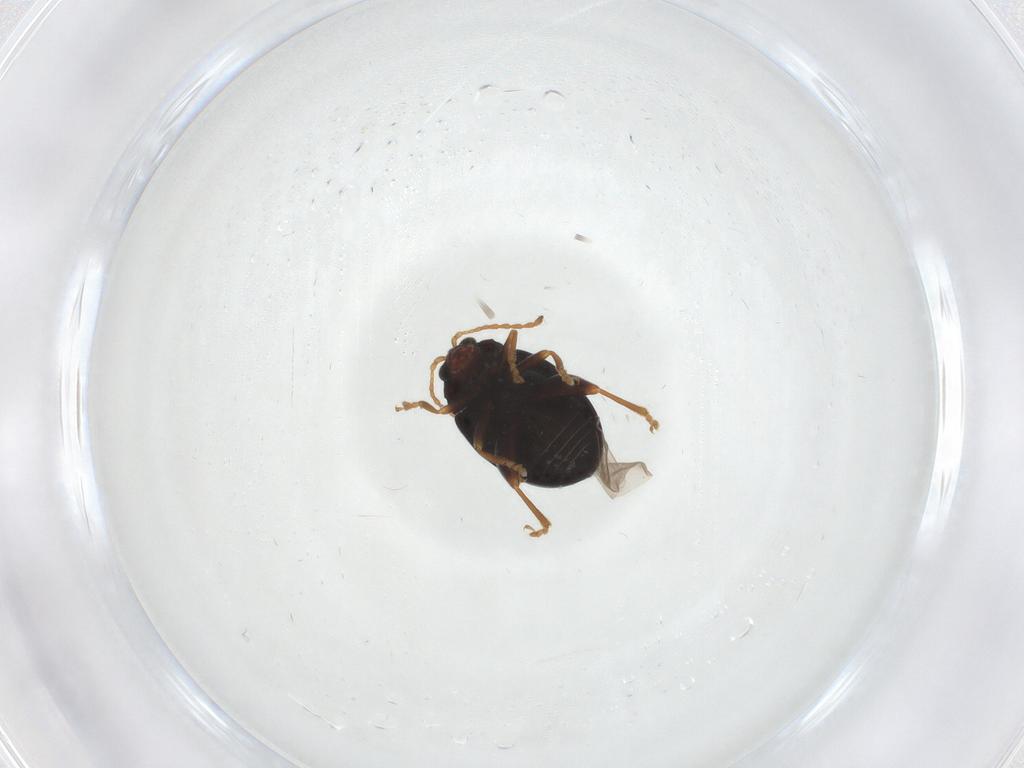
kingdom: Animalia
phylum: Arthropoda
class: Insecta
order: Coleoptera
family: Chrysomelidae
